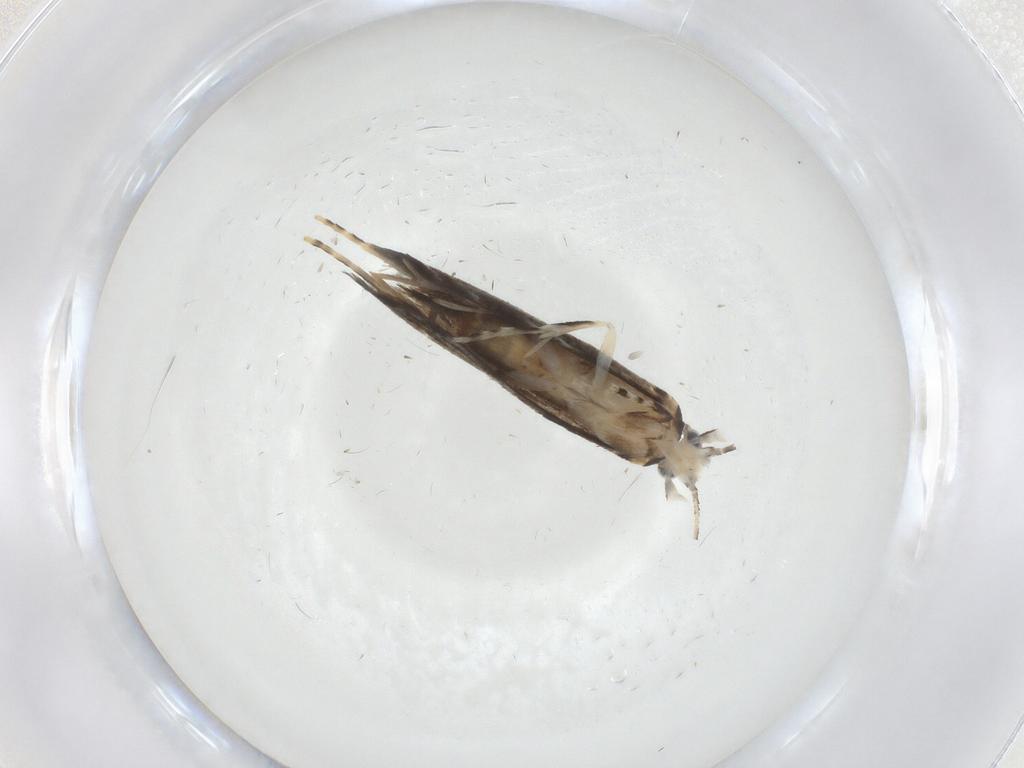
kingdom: Animalia
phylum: Arthropoda
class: Insecta
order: Lepidoptera
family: Tineidae
